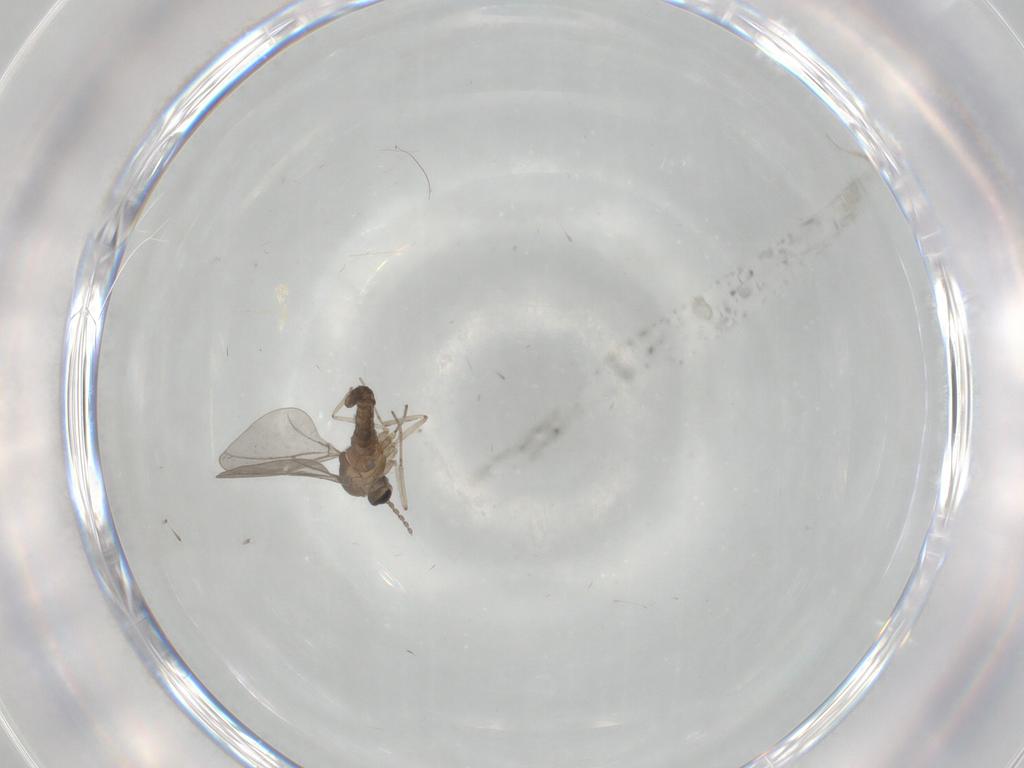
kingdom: Animalia
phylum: Arthropoda
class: Insecta
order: Blattodea
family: Ectobiidae
